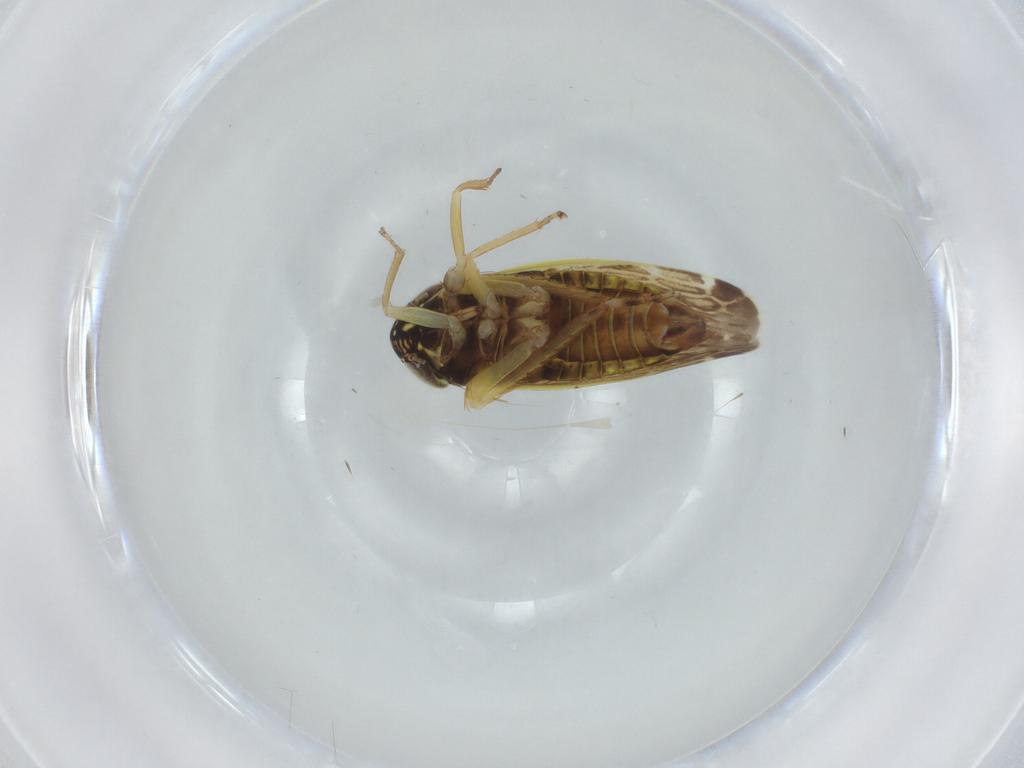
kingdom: Animalia
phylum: Arthropoda
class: Insecta
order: Hemiptera
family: Cicadellidae
